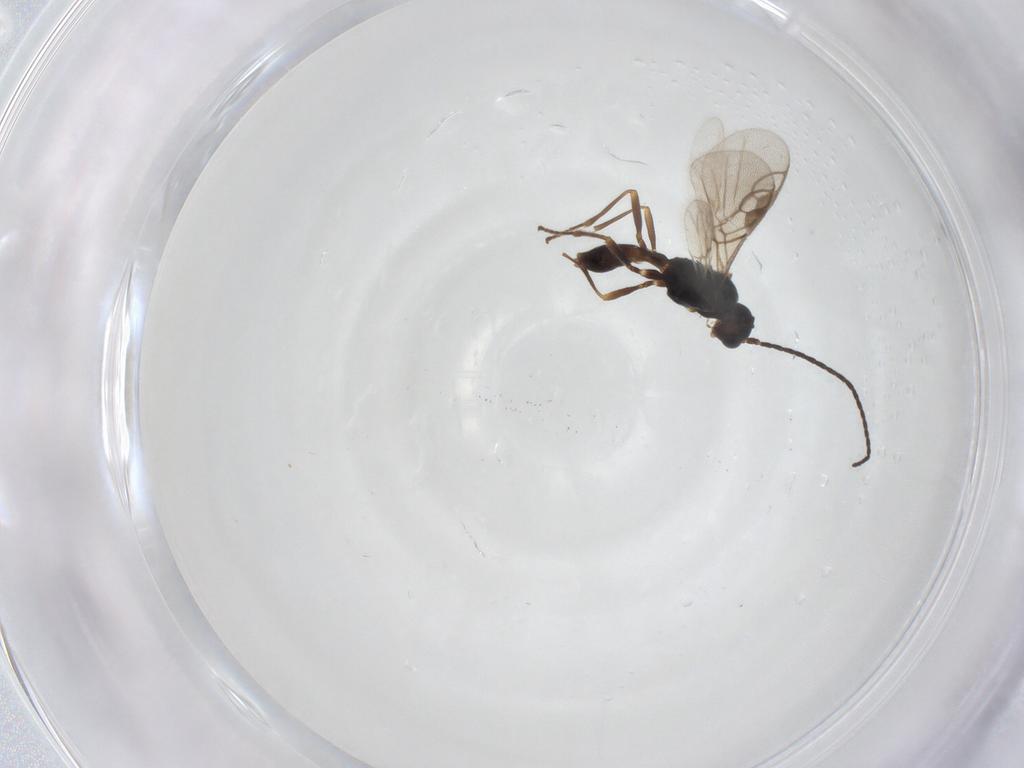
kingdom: Animalia
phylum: Arthropoda
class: Insecta
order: Hymenoptera
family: Braconidae
